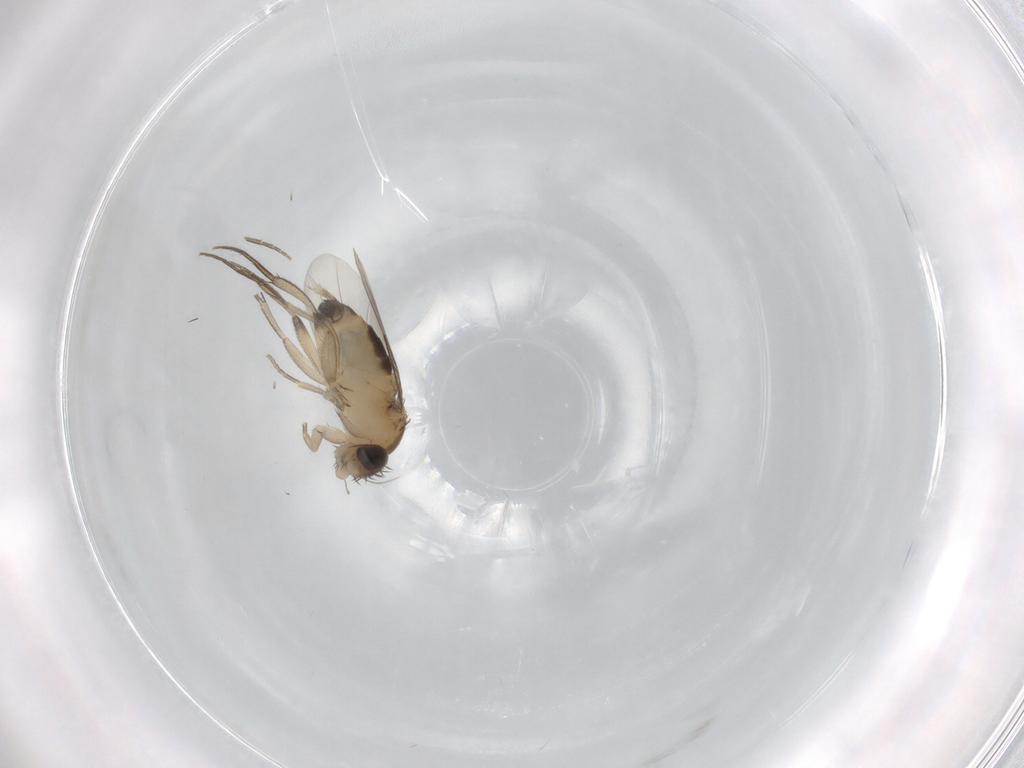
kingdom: Animalia
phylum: Arthropoda
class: Insecta
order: Diptera
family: Phoridae
